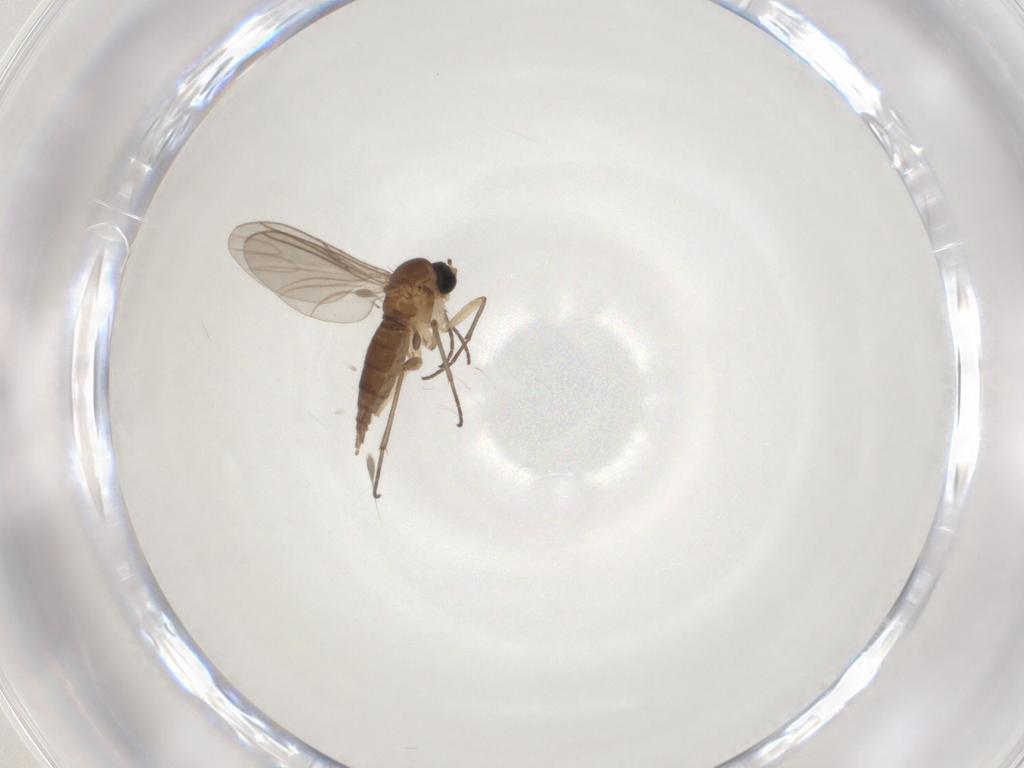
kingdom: Animalia
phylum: Arthropoda
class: Insecta
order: Diptera
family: Sciaridae
